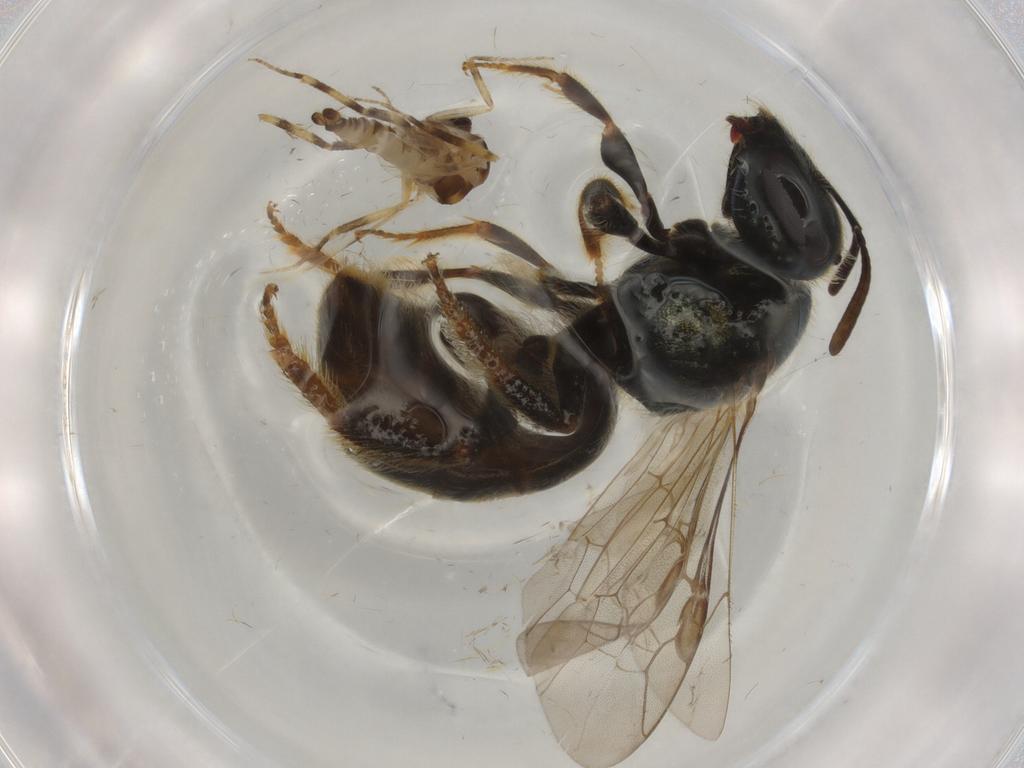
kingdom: Animalia
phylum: Arthropoda
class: Insecta
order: Diptera
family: Ceratopogonidae
